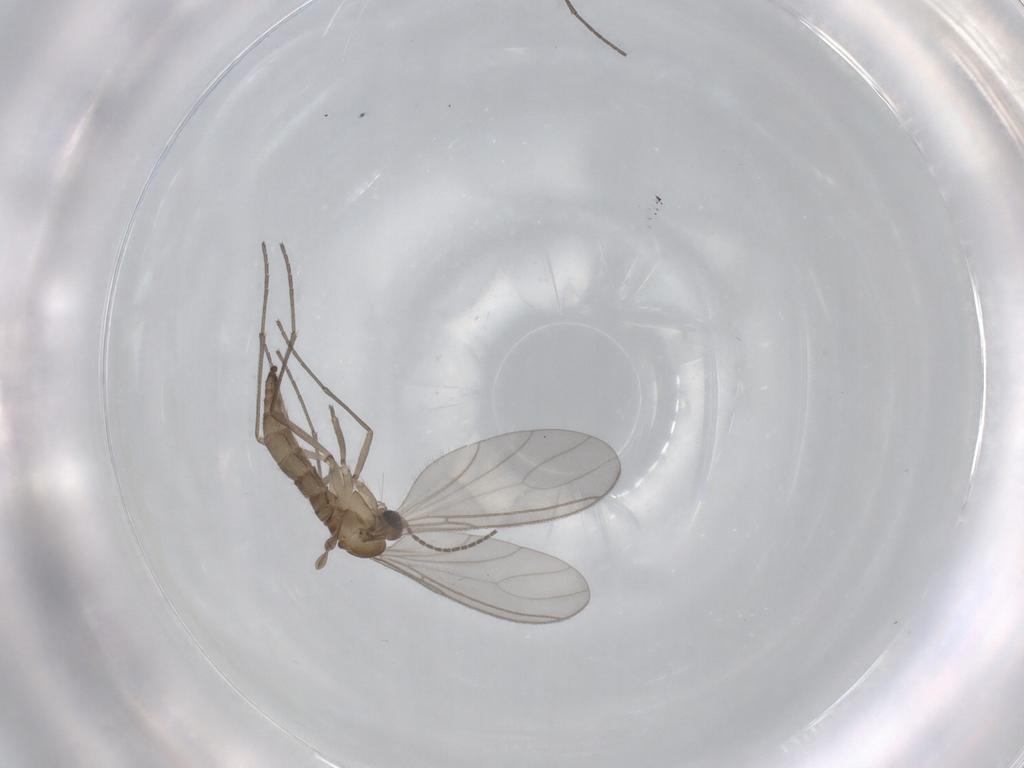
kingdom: Animalia
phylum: Arthropoda
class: Insecta
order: Diptera
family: Sciaridae
